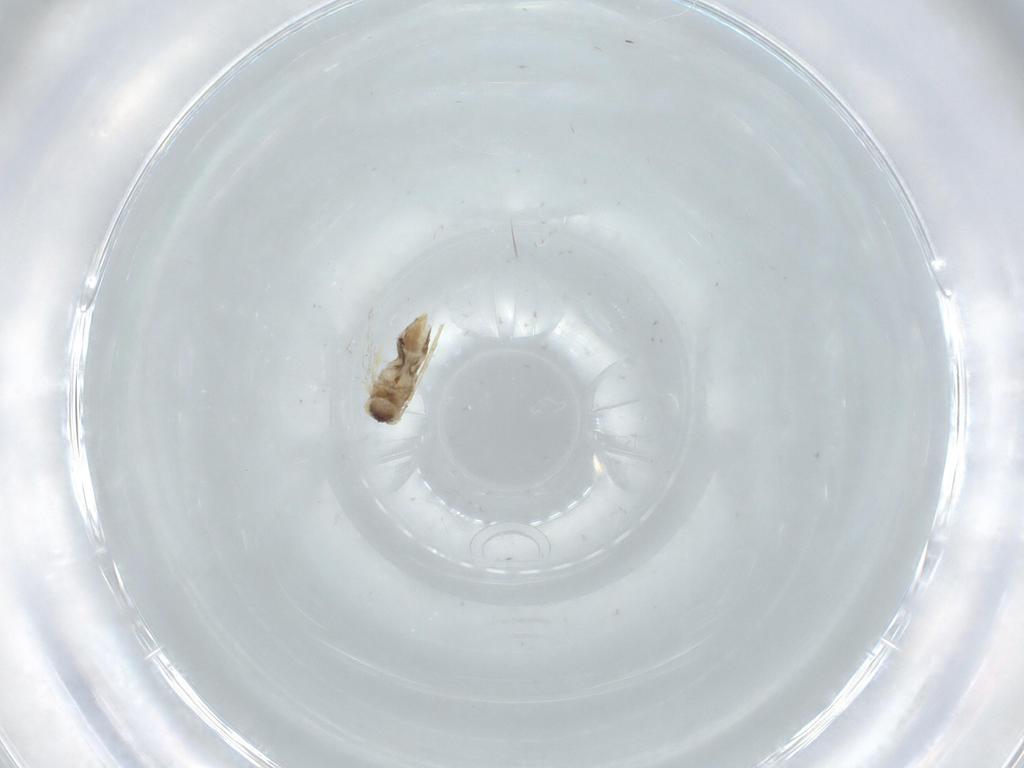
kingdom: Animalia
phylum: Arthropoda
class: Insecta
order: Lepidoptera
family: Nepticulidae
